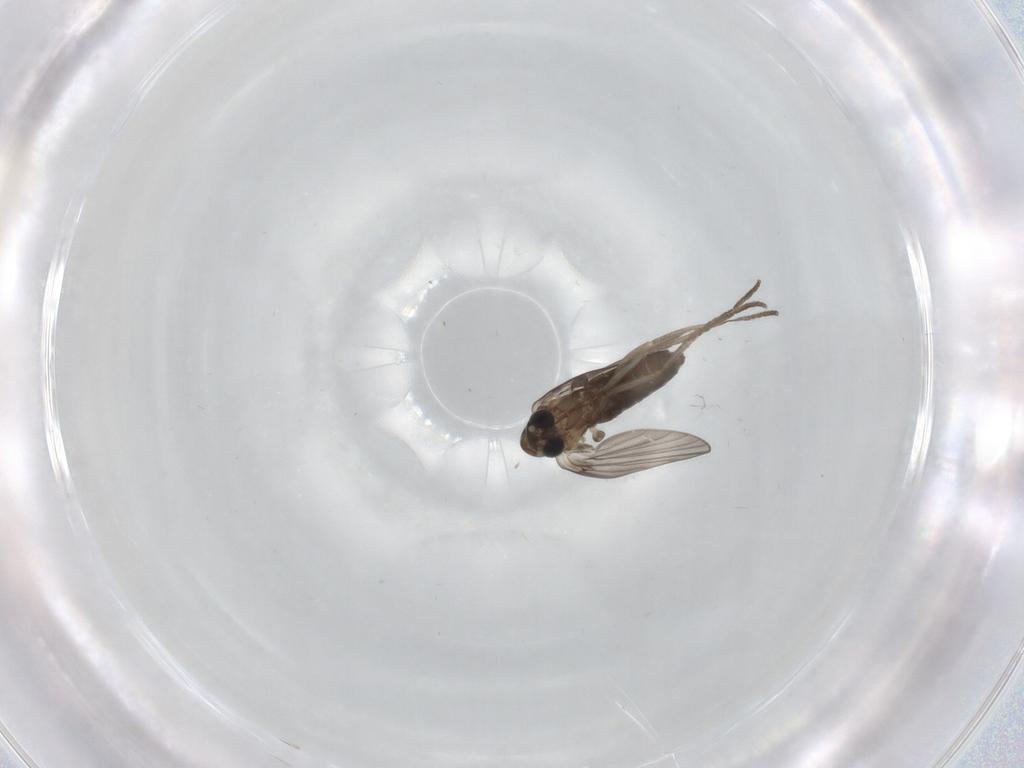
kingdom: Animalia
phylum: Arthropoda
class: Insecta
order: Diptera
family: Psychodidae
